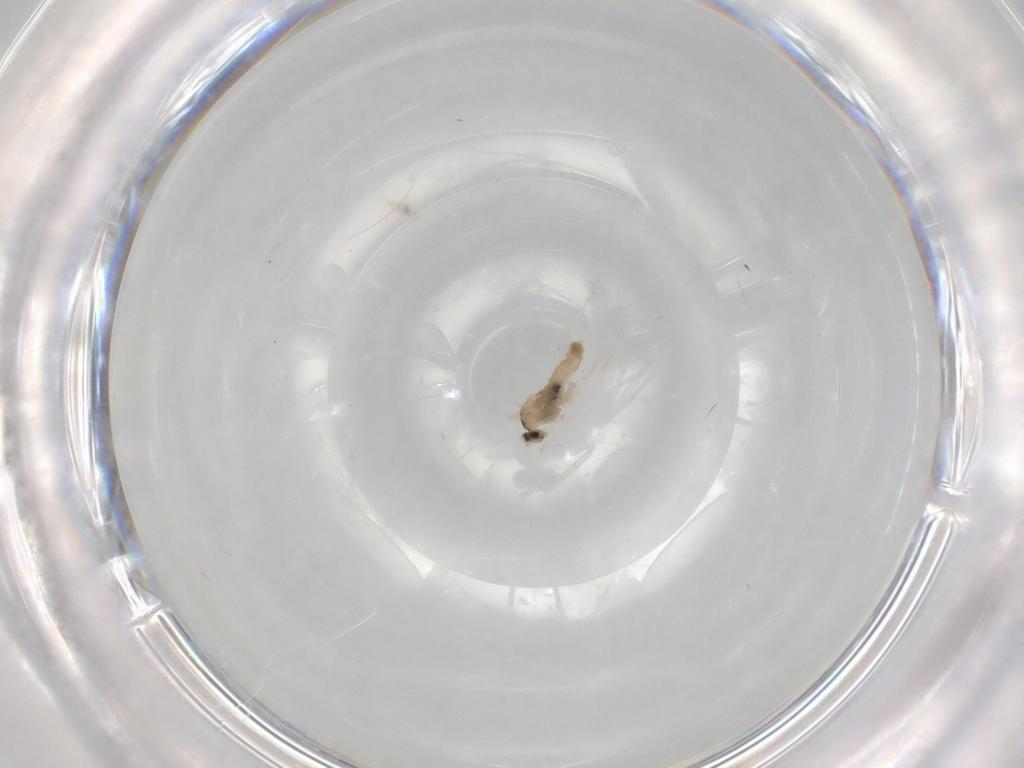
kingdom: Animalia
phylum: Arthropoda
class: Insecta
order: Diptera
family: Cecidomyiidae
